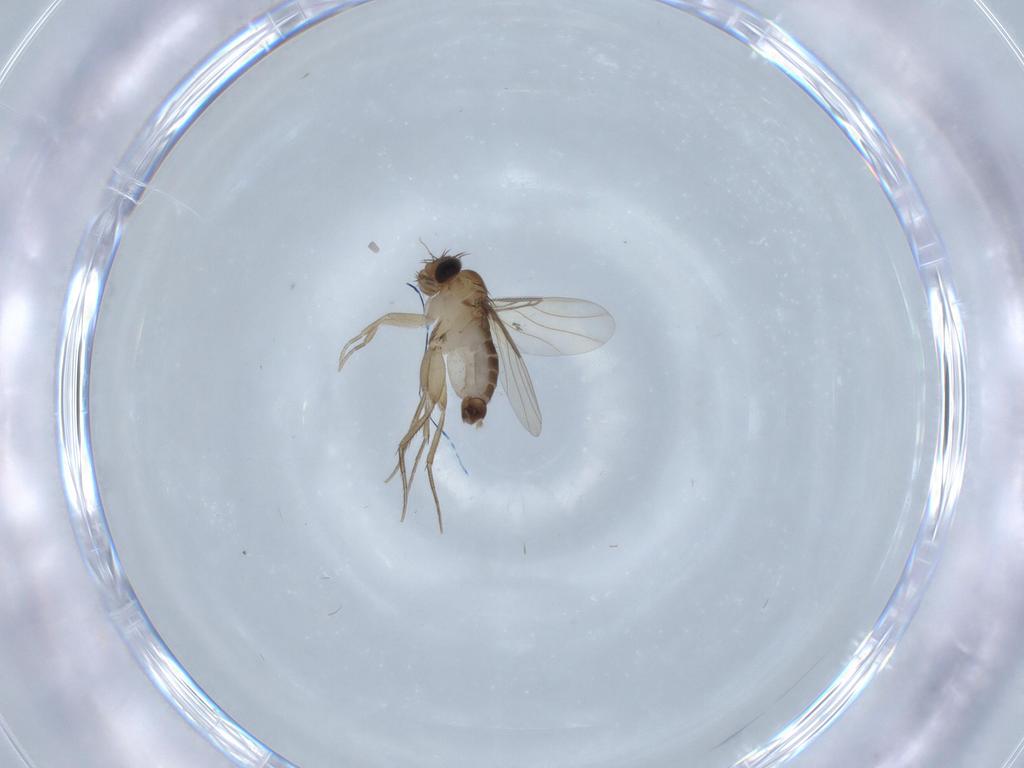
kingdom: Animalia
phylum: Arthropoda
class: Insecta
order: Diptera
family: Phoridae
